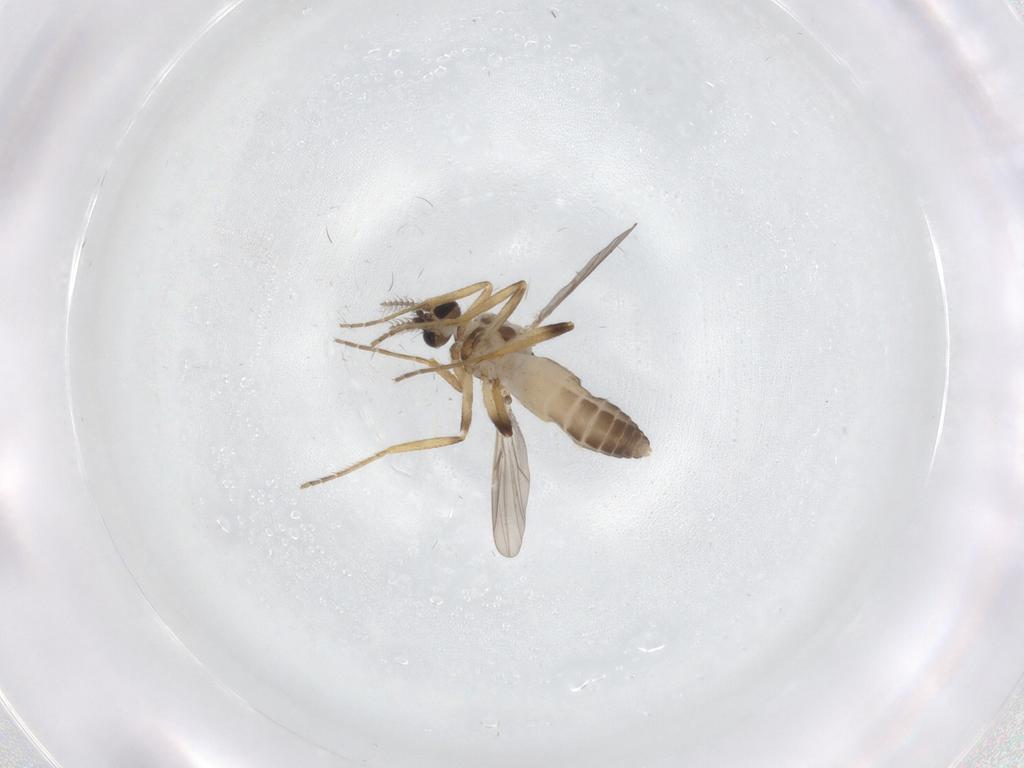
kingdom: Animalia
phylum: Arthropoda
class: Insecta
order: Diptera
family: Ceratopogonidae
